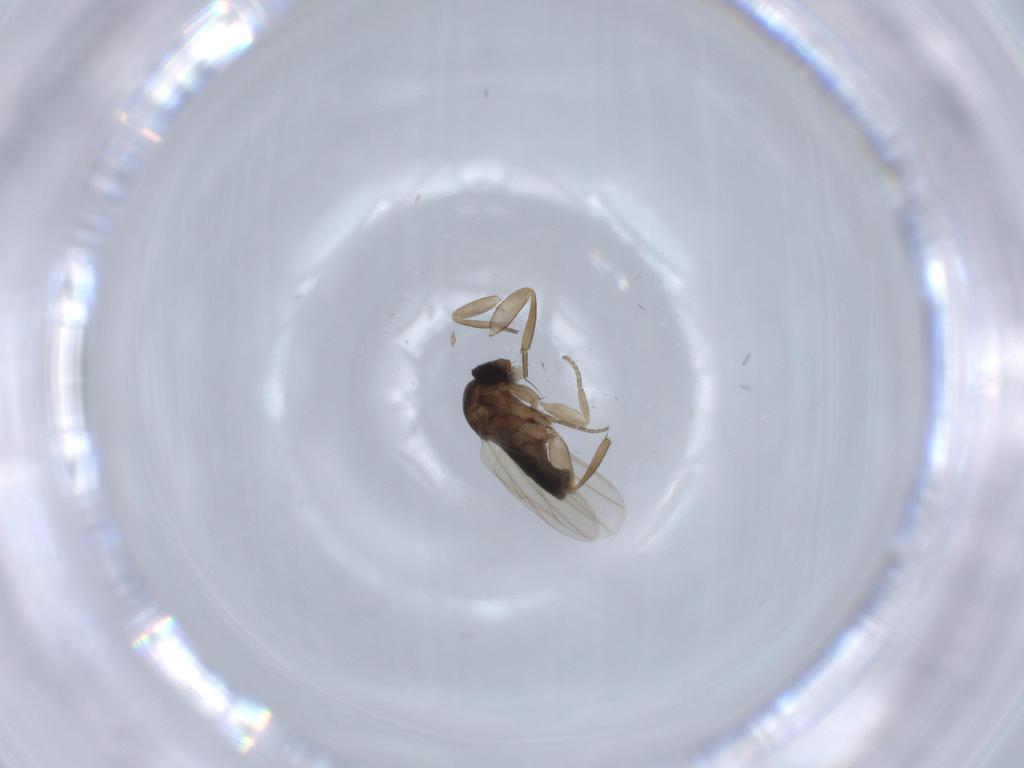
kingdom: Animalia
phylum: Arthropoda
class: Insecta
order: Diptera
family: Phoridae
